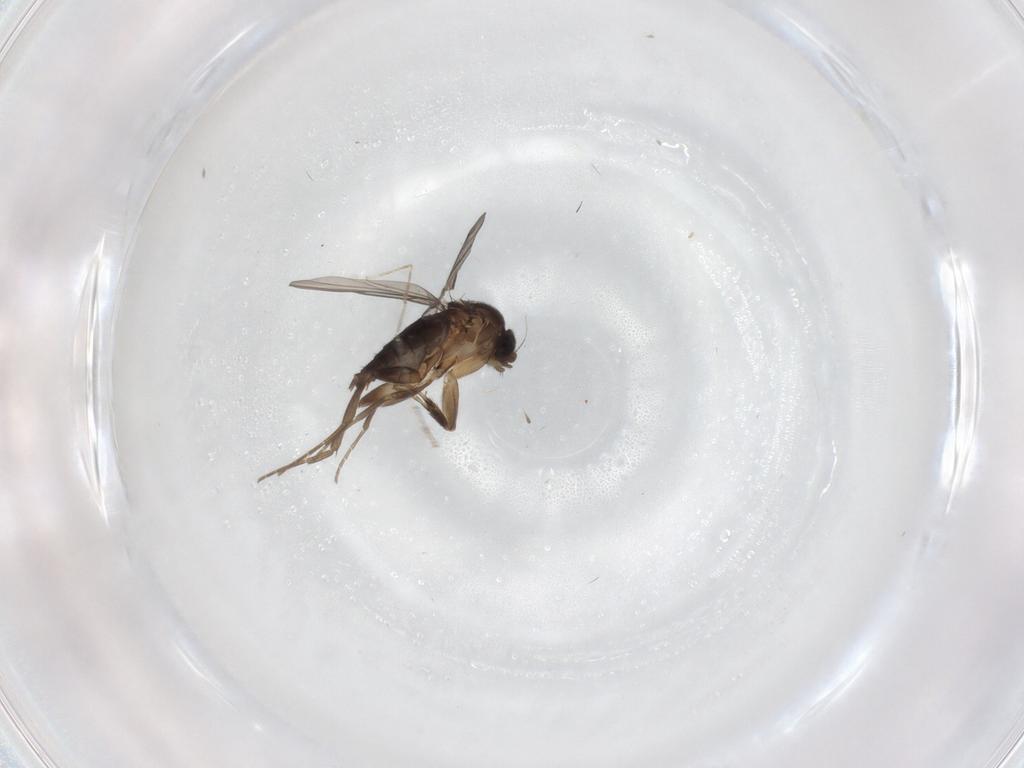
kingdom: Animalia
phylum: Arthropoda
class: Insecta
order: Diptera
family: Phoridae
